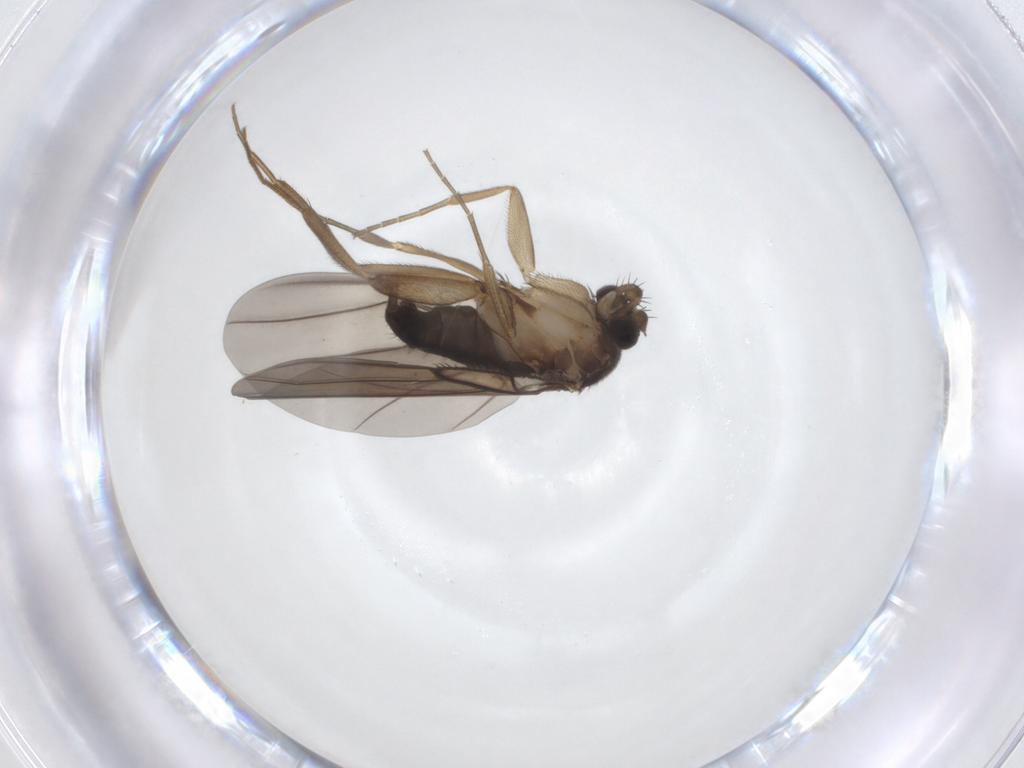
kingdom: Animalia
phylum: Arthropoda
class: Insecta
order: Diptera
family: Phoridae
